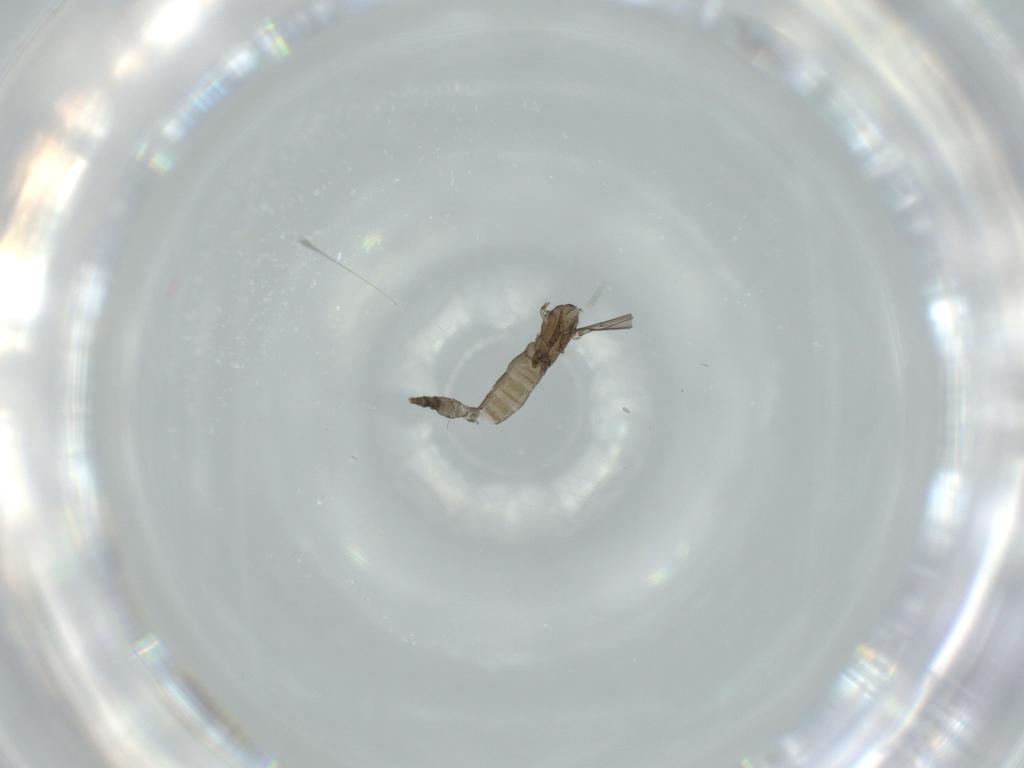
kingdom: Animalia
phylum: Arthropoda
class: Insecta
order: Diptera
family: Cecidomyiidae
